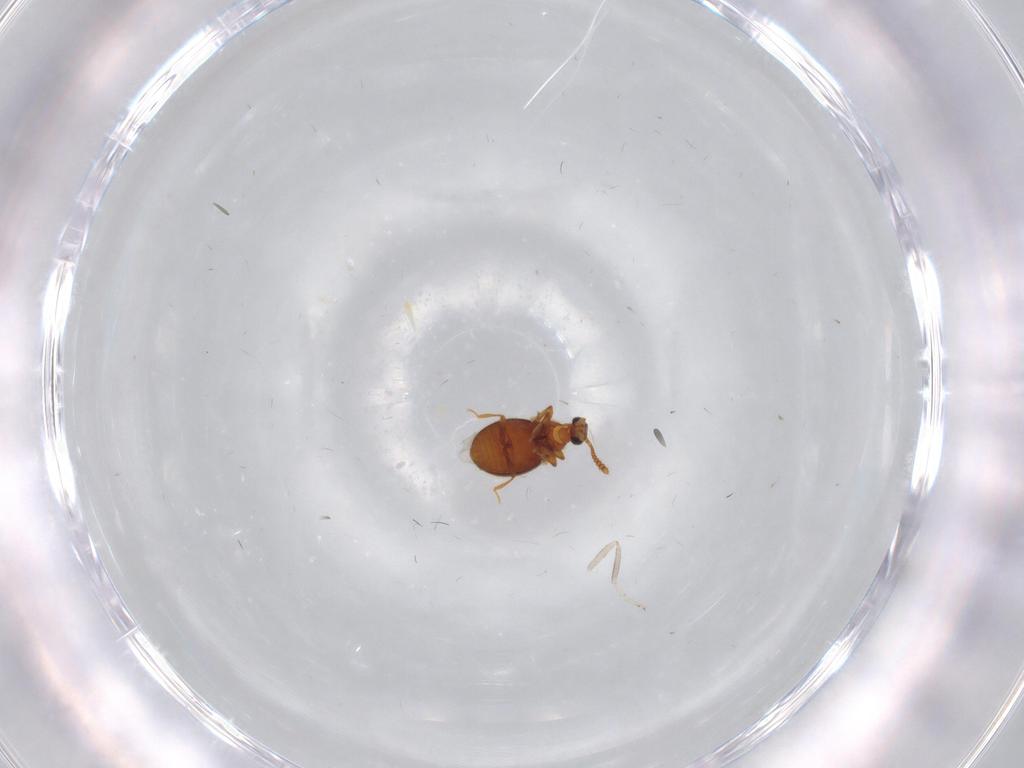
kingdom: Animalia
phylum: Arthropoda
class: Insecta
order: Coleoptera
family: Staphylinidae
